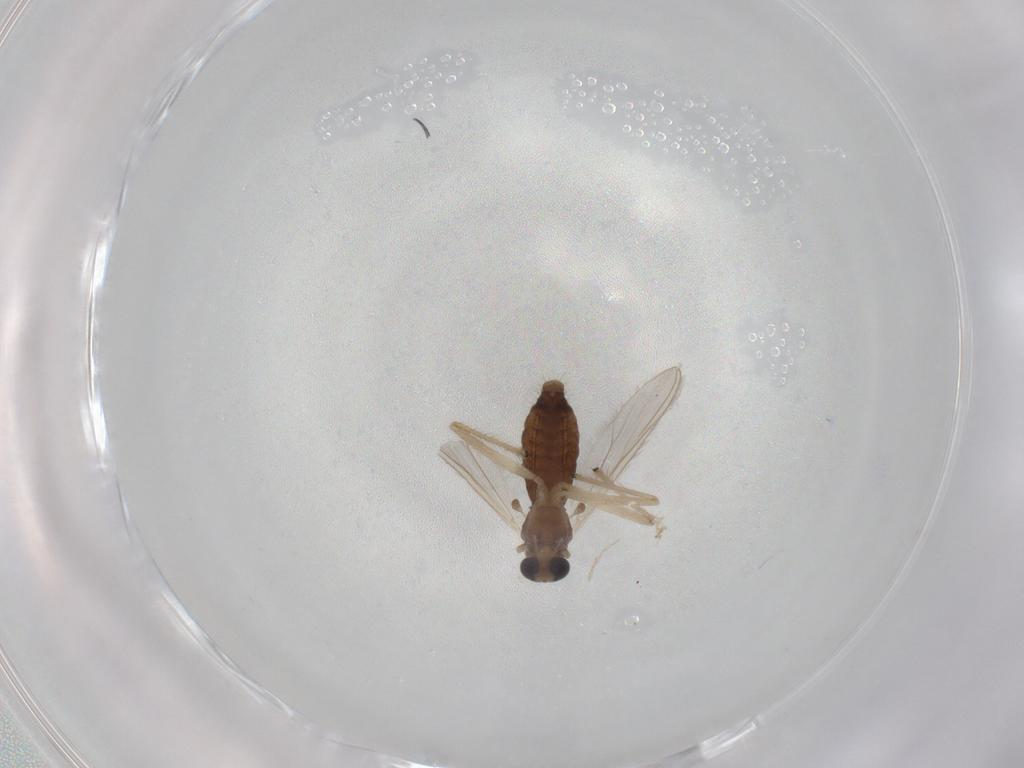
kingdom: Animalia
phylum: Arthropoda
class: Insecta
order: Diptera
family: Chironomidae
